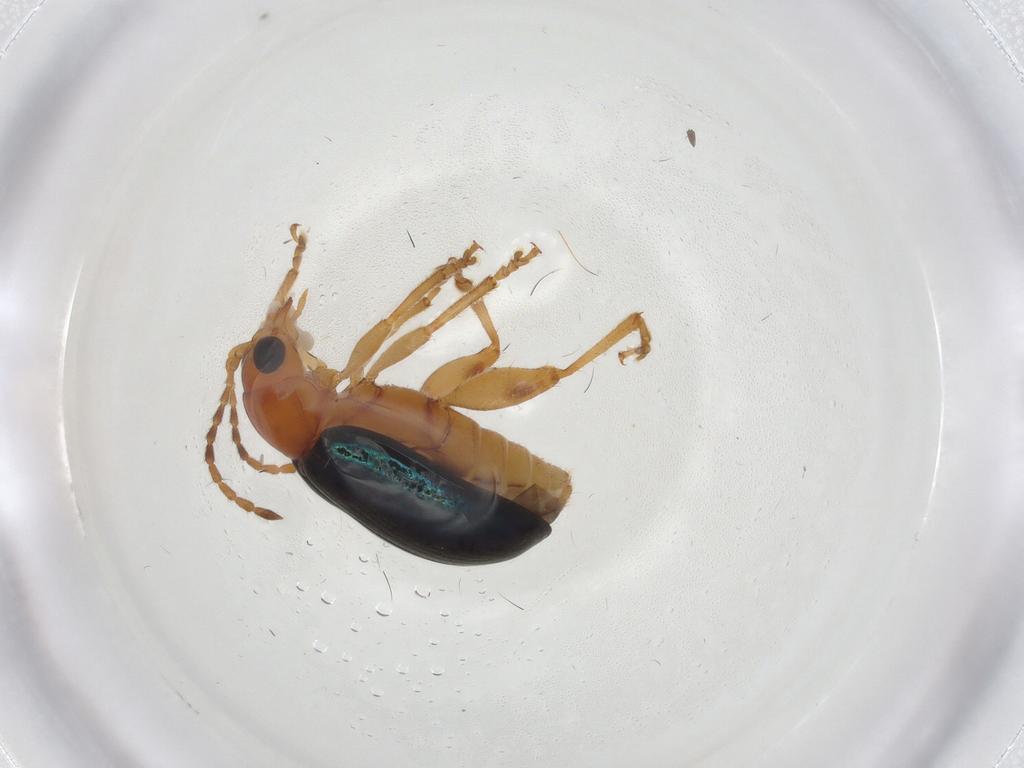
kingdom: Animalia
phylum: Arthropoda
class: Insecta
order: Coleoptera
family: Chrysomelidae
